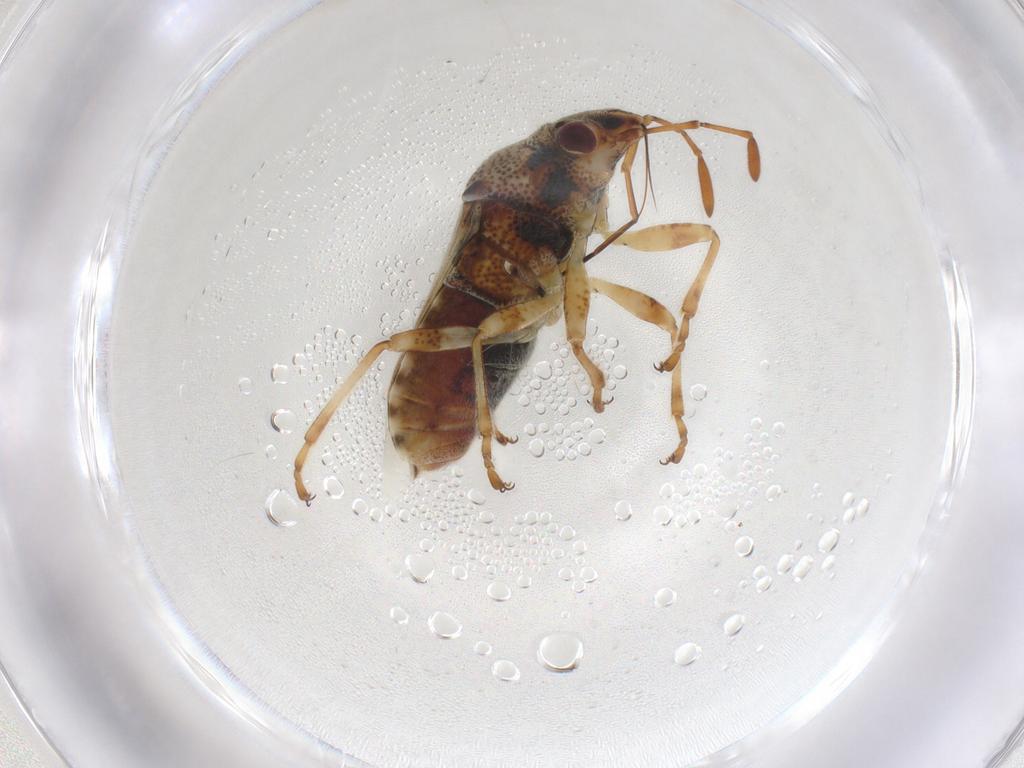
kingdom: Animalia
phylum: Arthropoda
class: Insecta
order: Hemiptera
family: Lygaeidae
